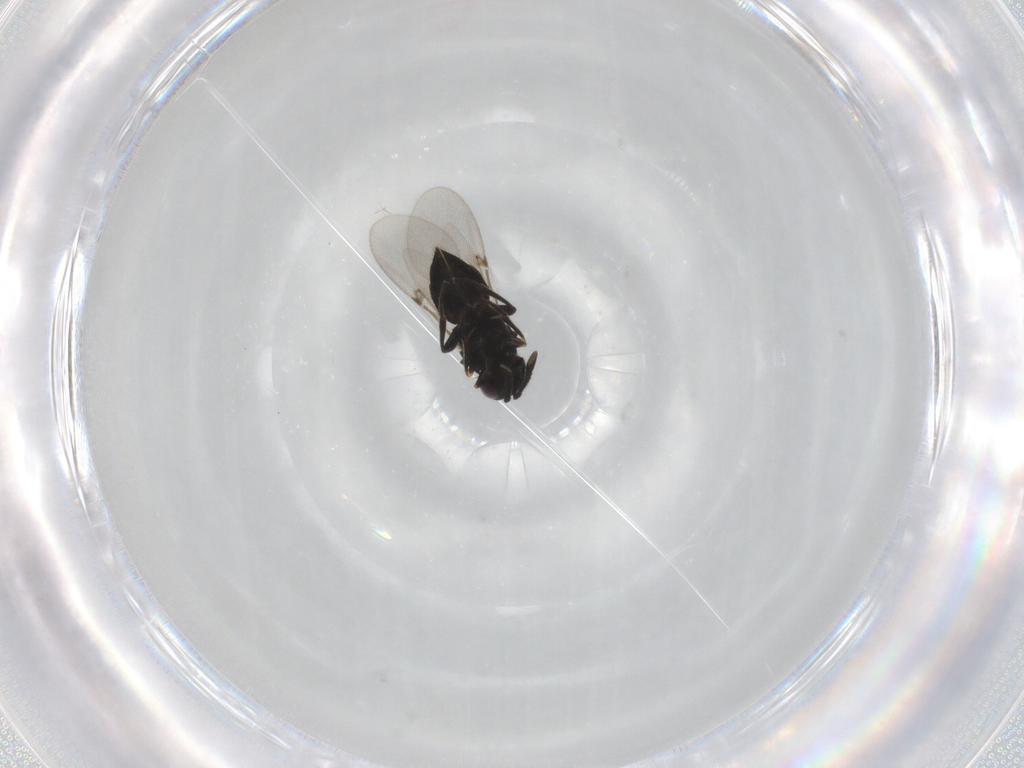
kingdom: Animalia
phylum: Arthropoda
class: Insecta
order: Hymenoptera
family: Encyrtidae
